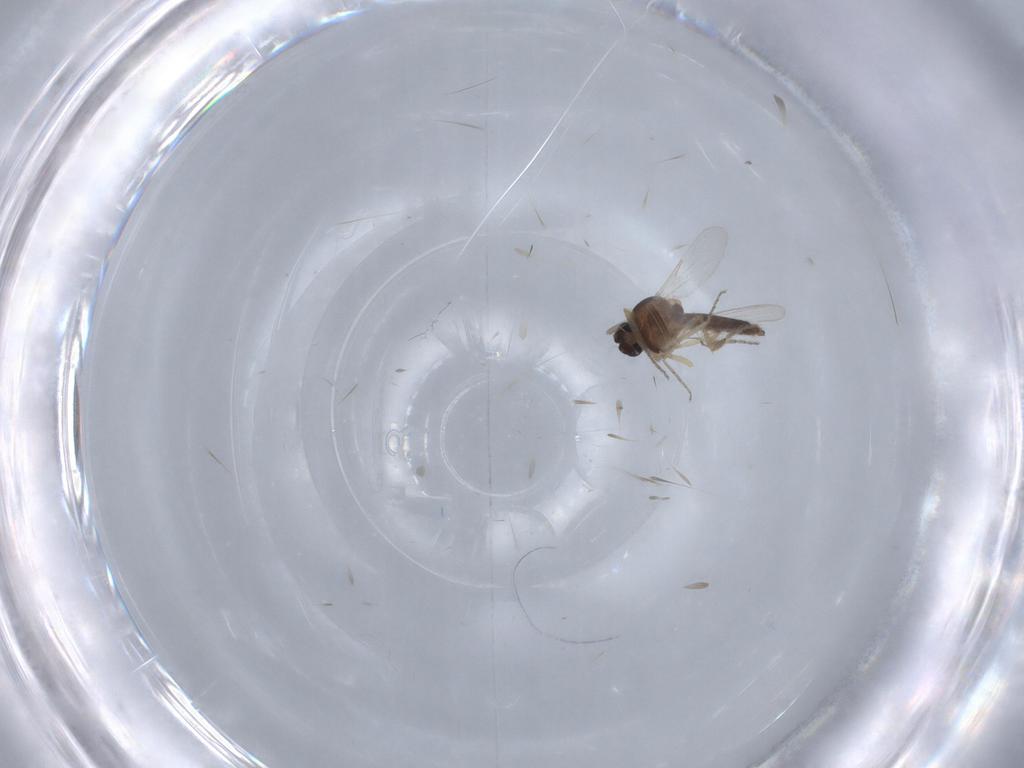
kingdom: Animalia
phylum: Arthropoda
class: Insecta
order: Diptera
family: Ceratopogonidae
